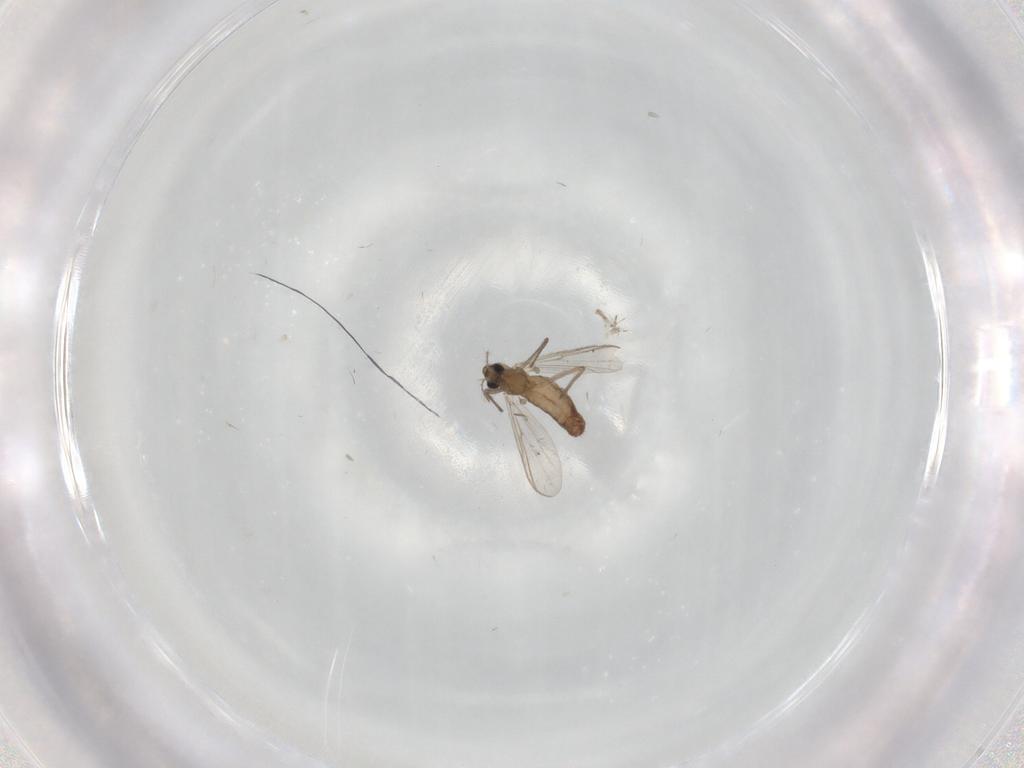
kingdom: Animalia
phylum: Arthropoda
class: Insecta
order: Diptera
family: Chironomidae
